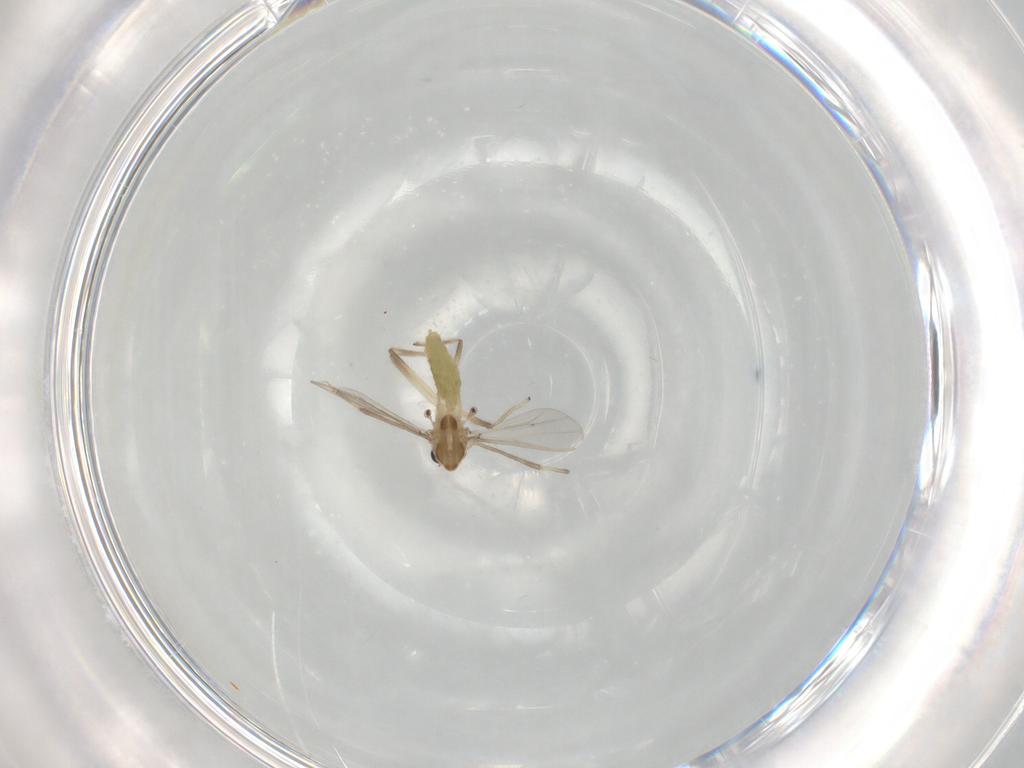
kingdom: Animalia
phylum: Arthropoda
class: Insecta
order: Diptera
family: Chironomidae
